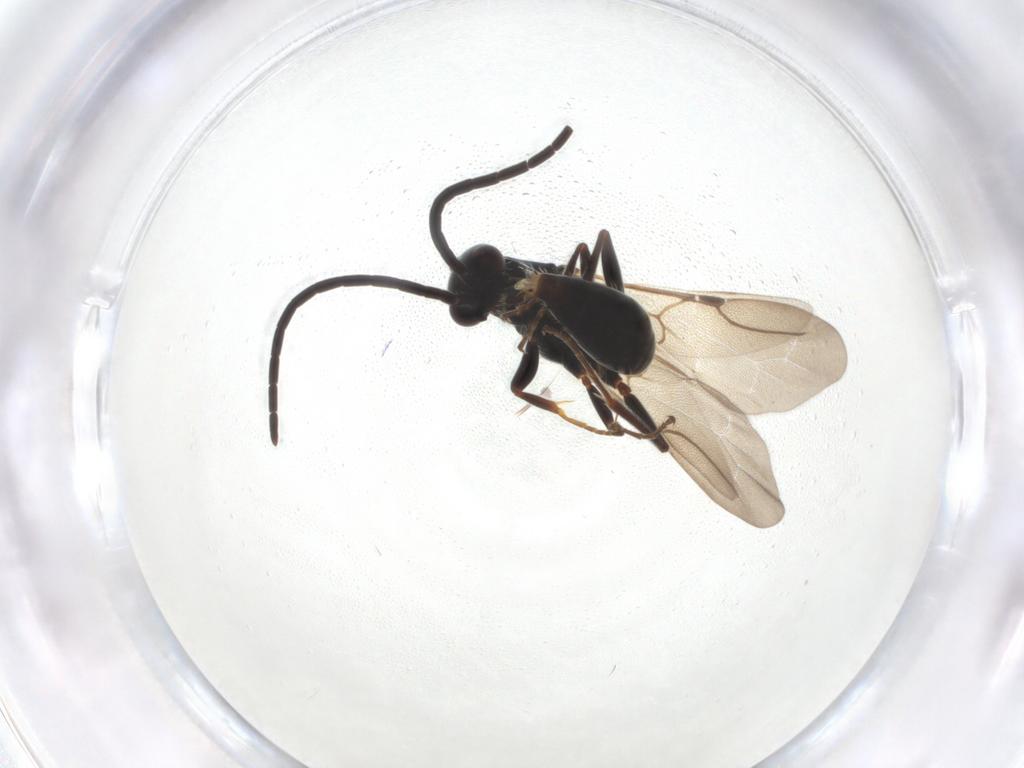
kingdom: Animalia
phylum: Arthropoda
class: Insecta
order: Hymenoptera
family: Bethylidae
